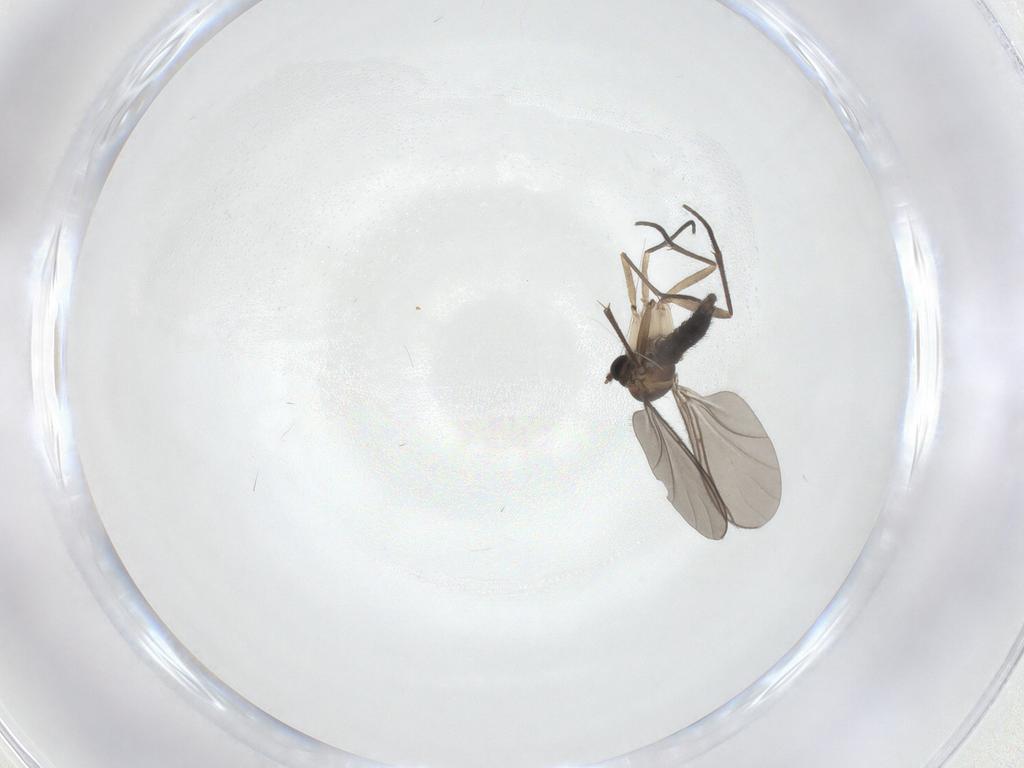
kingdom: Animalia
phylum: Arthropoda
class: Insecta
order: Diptera
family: Sciaridae
